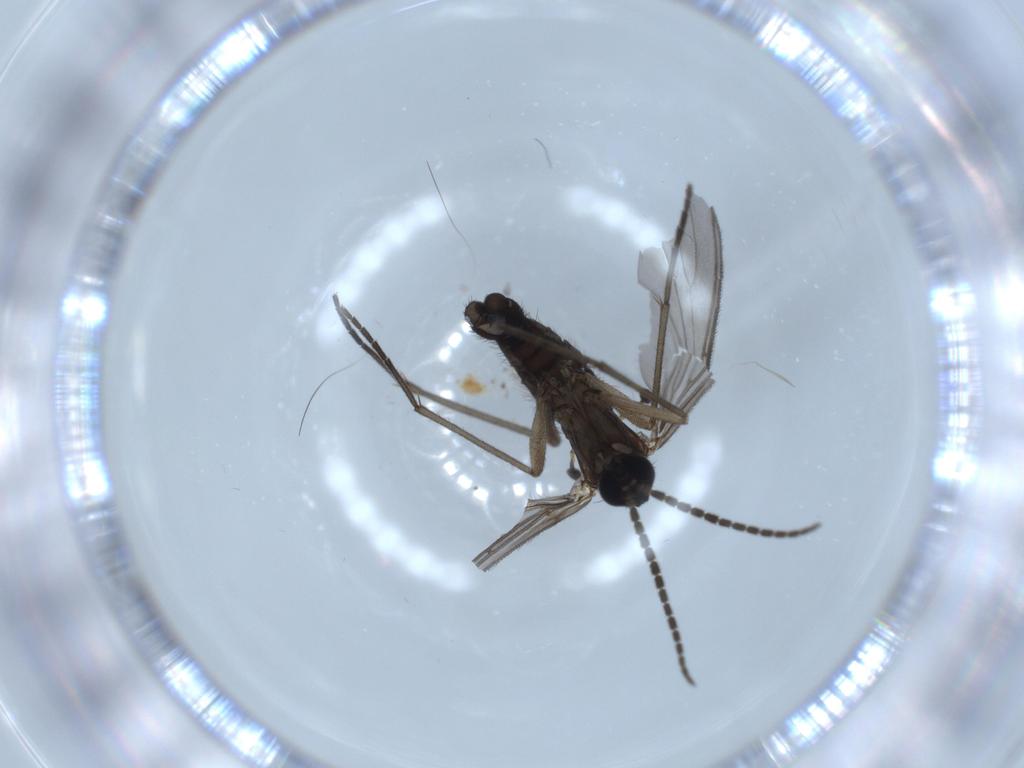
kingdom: Animalia
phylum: Arthropoda
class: Insecta
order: Diptera
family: Sciaridae
